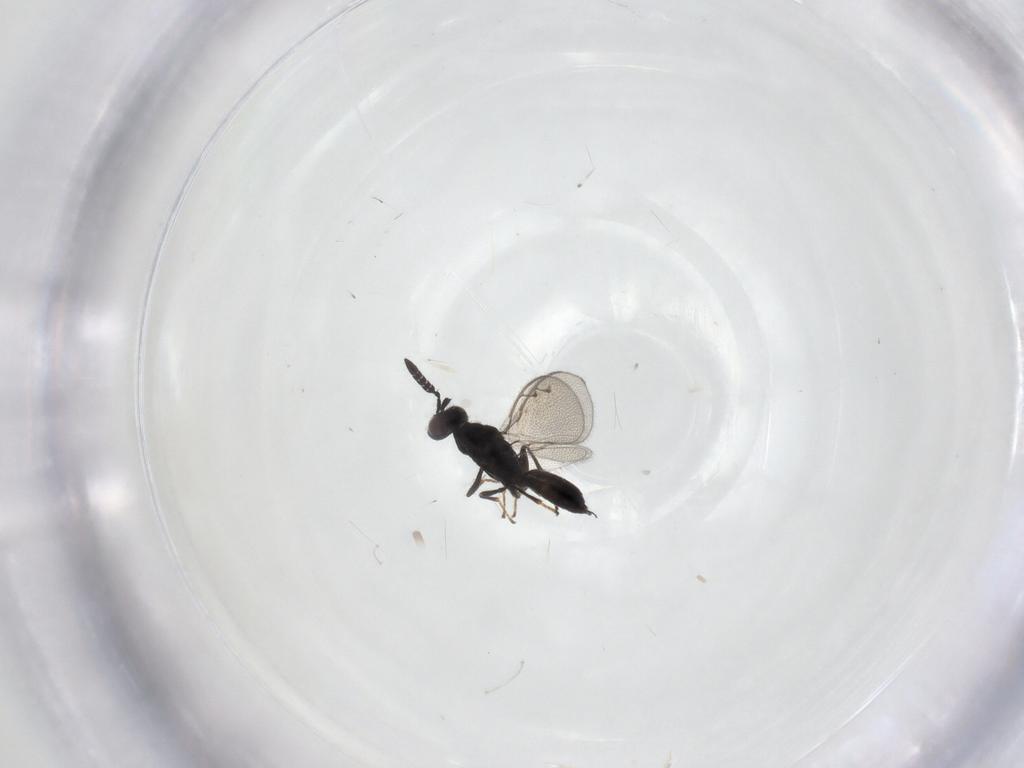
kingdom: Animalia
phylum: Arthropoda
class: Insecta
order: Hymenoptera
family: Pteromalidae
